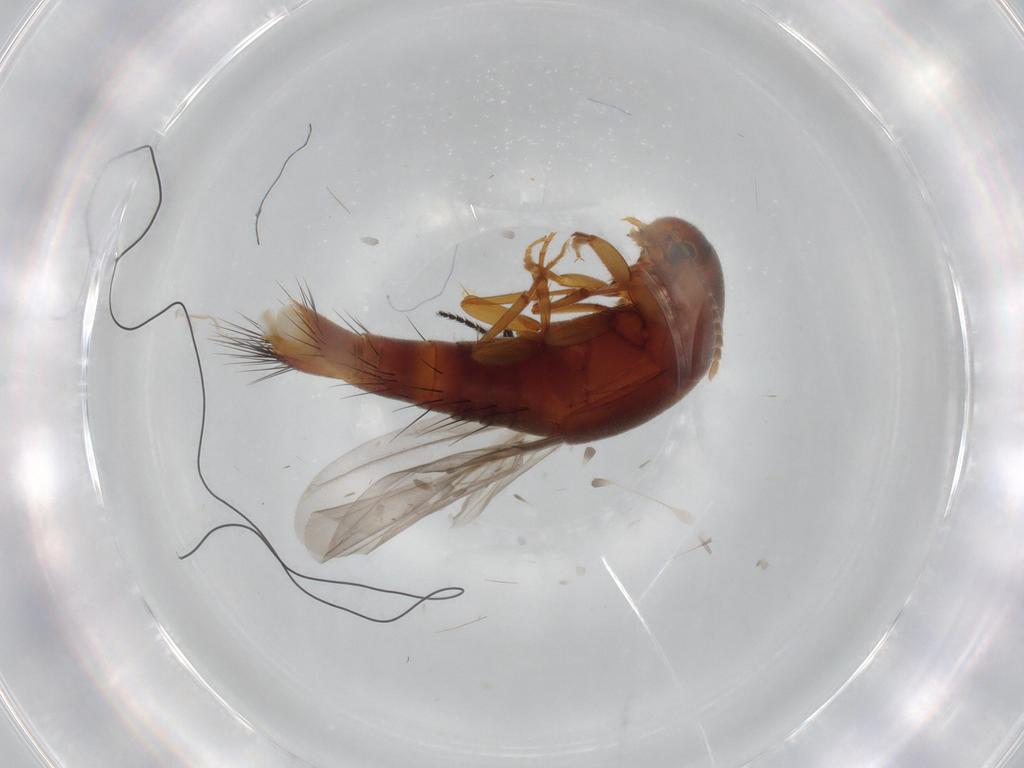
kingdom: Animalia
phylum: Arthropoda
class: Insecta
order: Coleoptera
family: Staphylinidae
